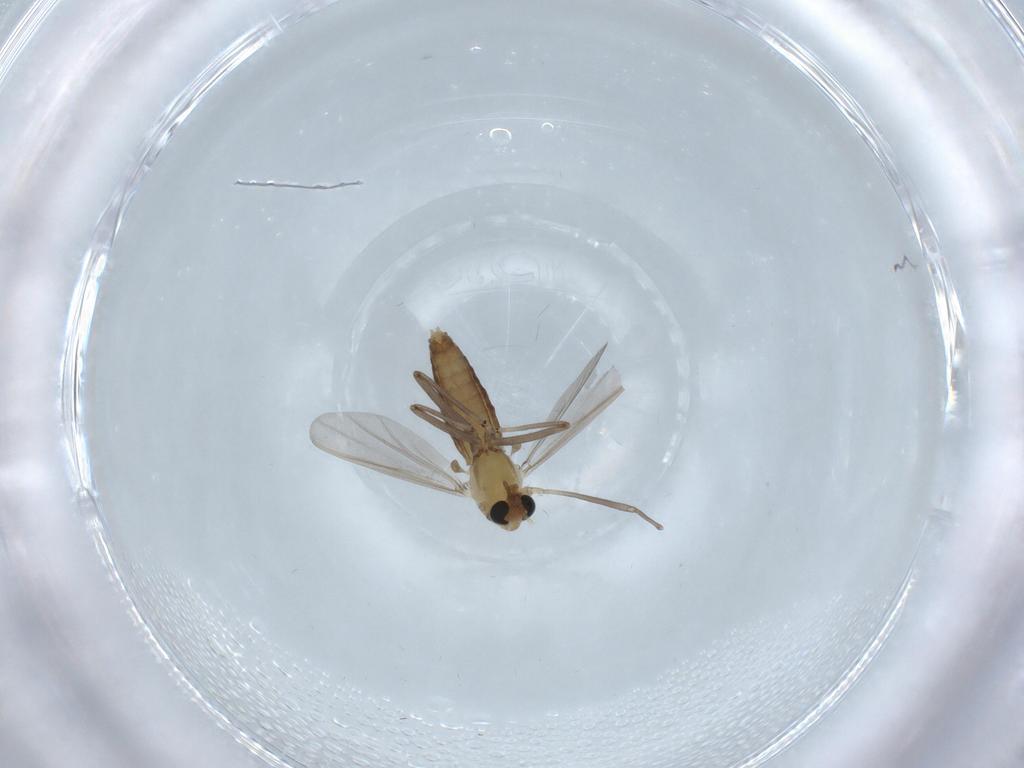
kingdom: Animalia
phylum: Arthropoda
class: Insecta
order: Diptera
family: Chironomidae
